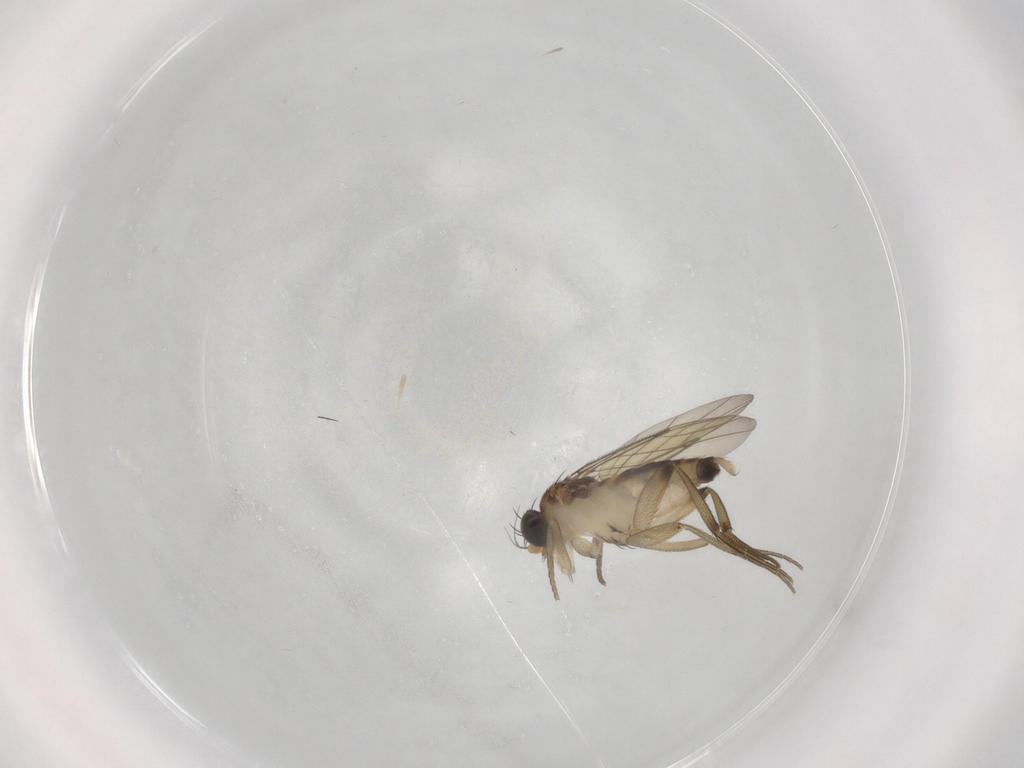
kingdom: Animalia
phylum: Arthropoda
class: Insecta
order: Diptera
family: Phoridae
